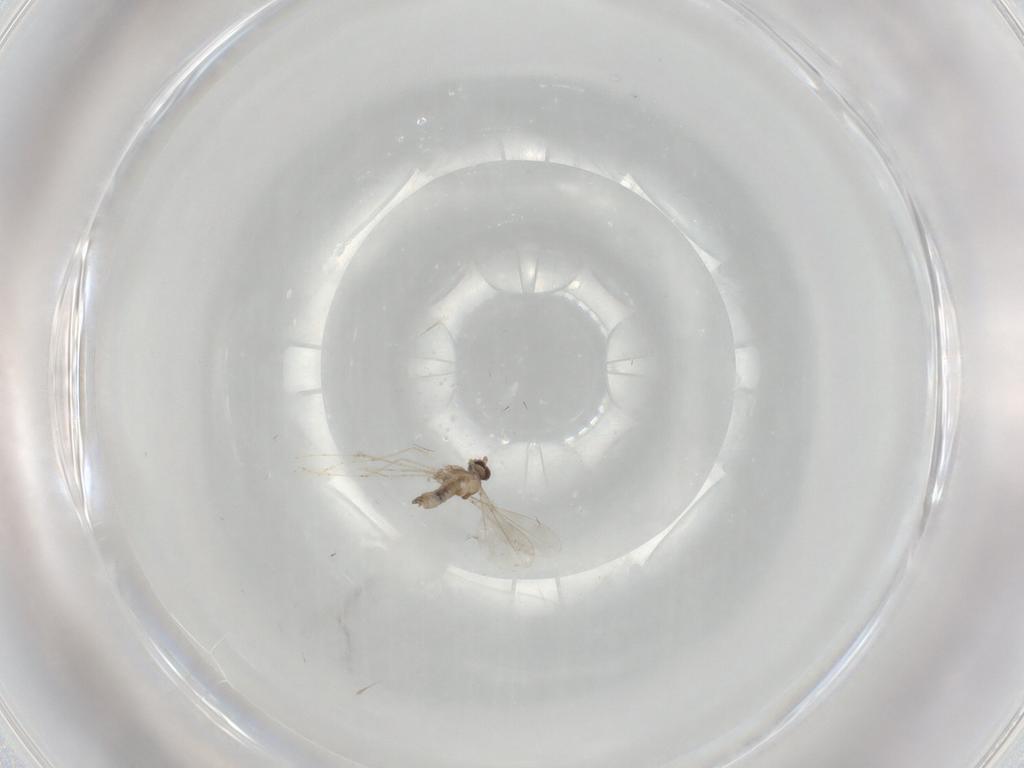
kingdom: Animalia
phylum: Arthropoda
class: Insecta
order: Diptera
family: Cecidomyiidae
